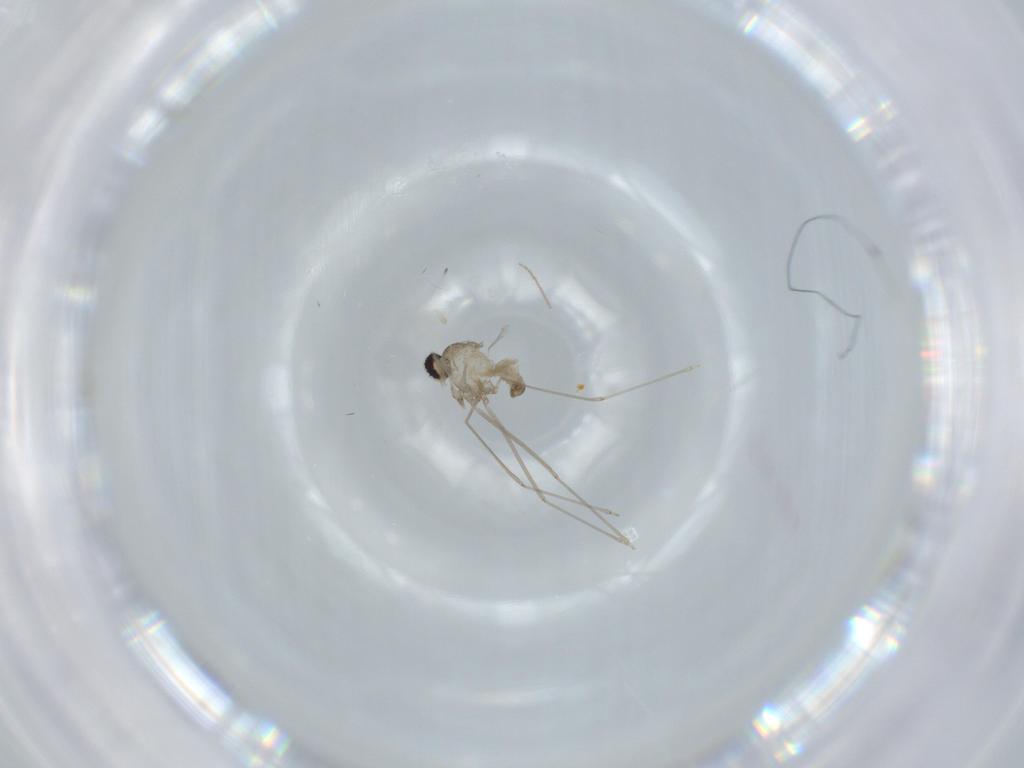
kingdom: Animalia
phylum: Arthropoda
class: Insecta
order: Diptera
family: Cecidomyiidae
